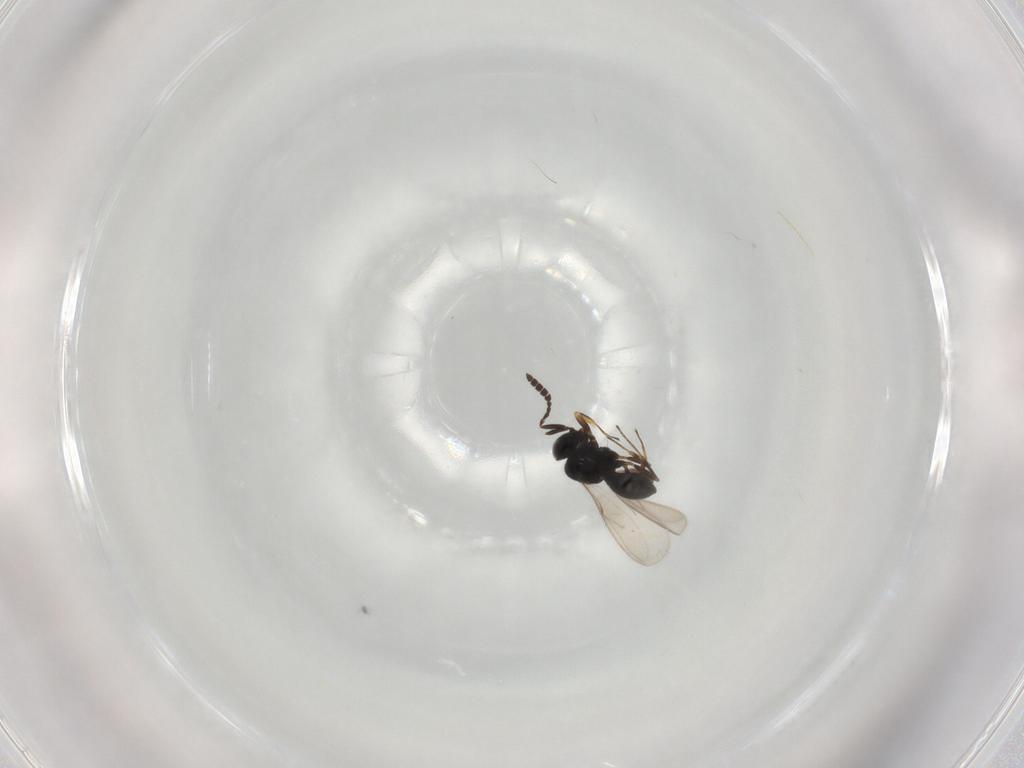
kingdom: Animalia
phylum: Arthropoda
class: Insecta
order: Hymenoptera
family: Scelionidae
